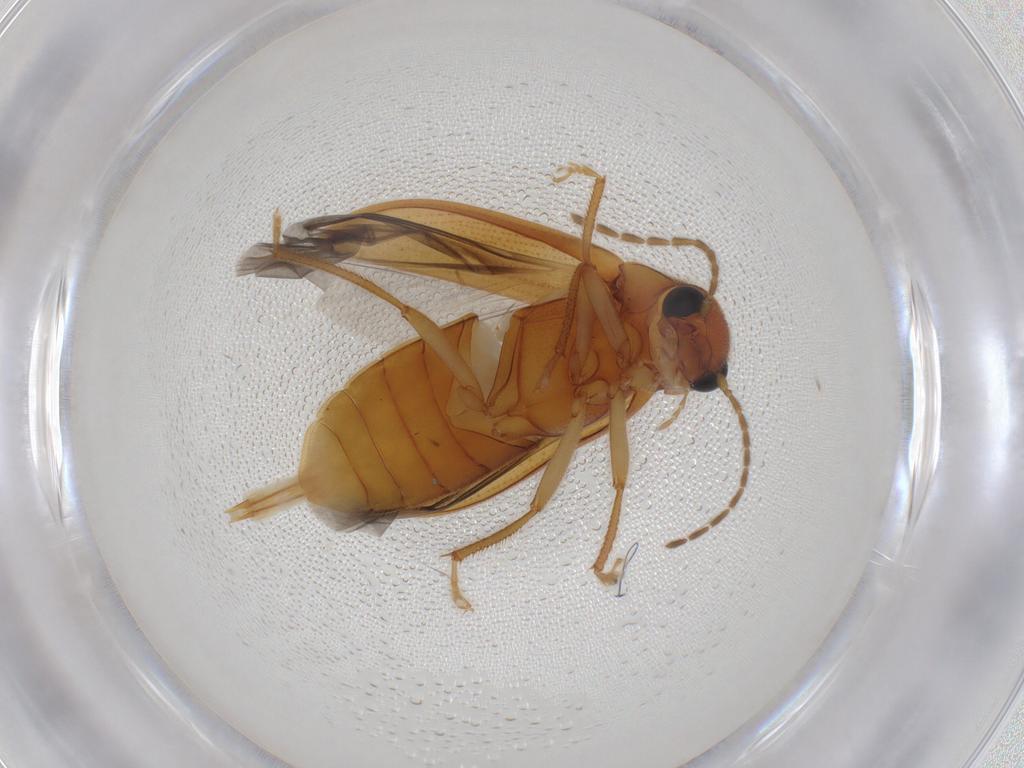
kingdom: Animalia
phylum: Arthropoda
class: Insecta
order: Coleoptera
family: Ptilodactylidae
